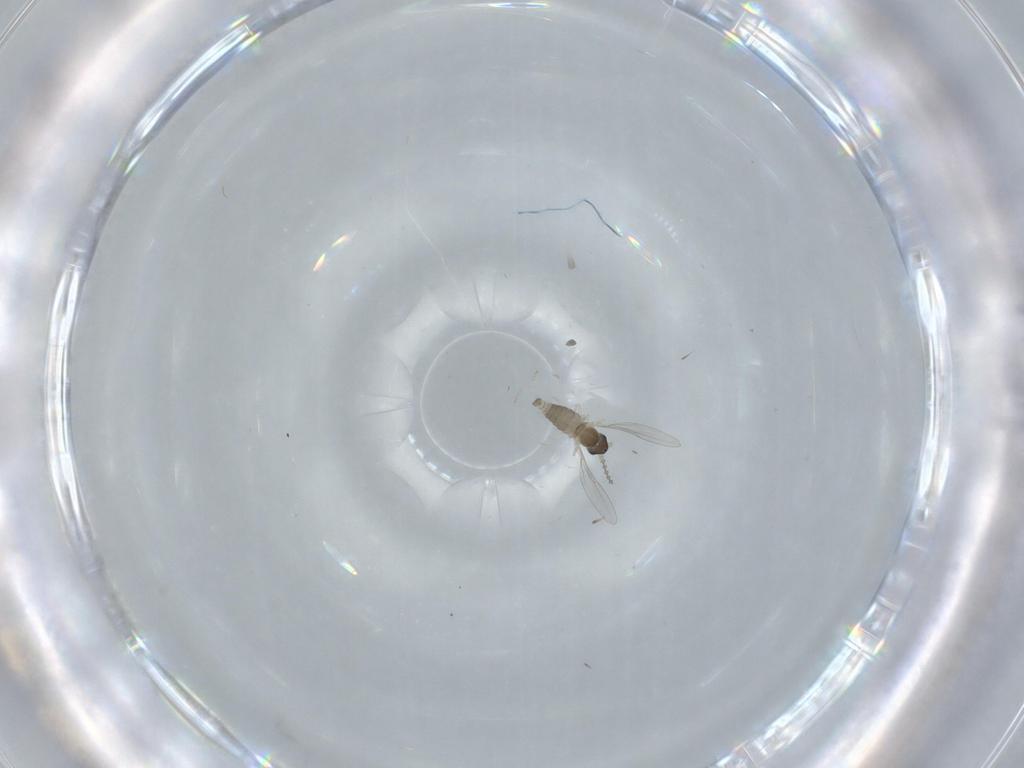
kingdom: Animalia
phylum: Arthropoda
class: Insecta
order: Diptera
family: Cecidomyiidae
